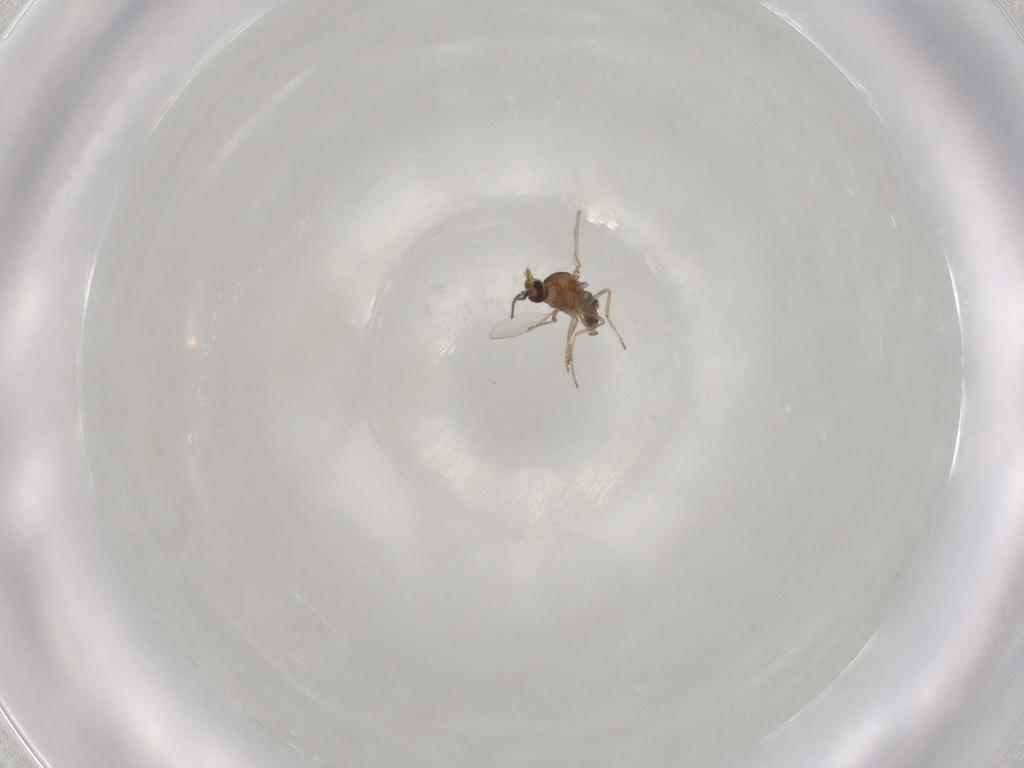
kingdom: Animalia
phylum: Arthropoda
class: Insecta
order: Diptera
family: Ceratopogonidae
